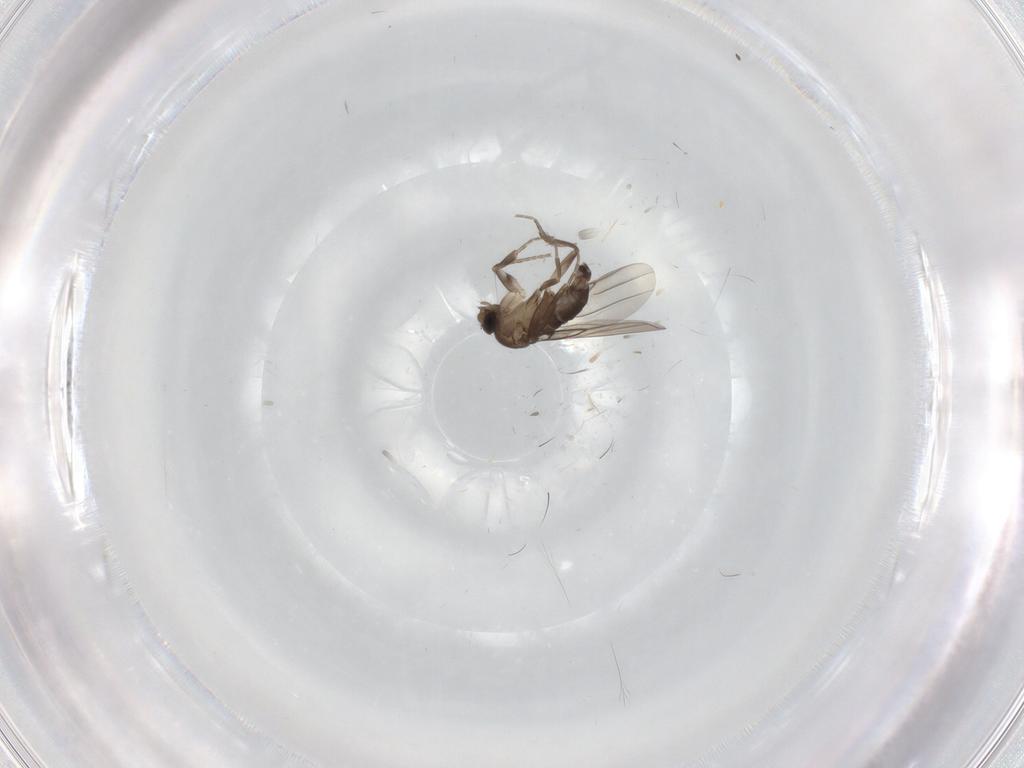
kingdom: Animalia
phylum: Arthropoda
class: Insecta
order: Diptera
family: Phoridae
